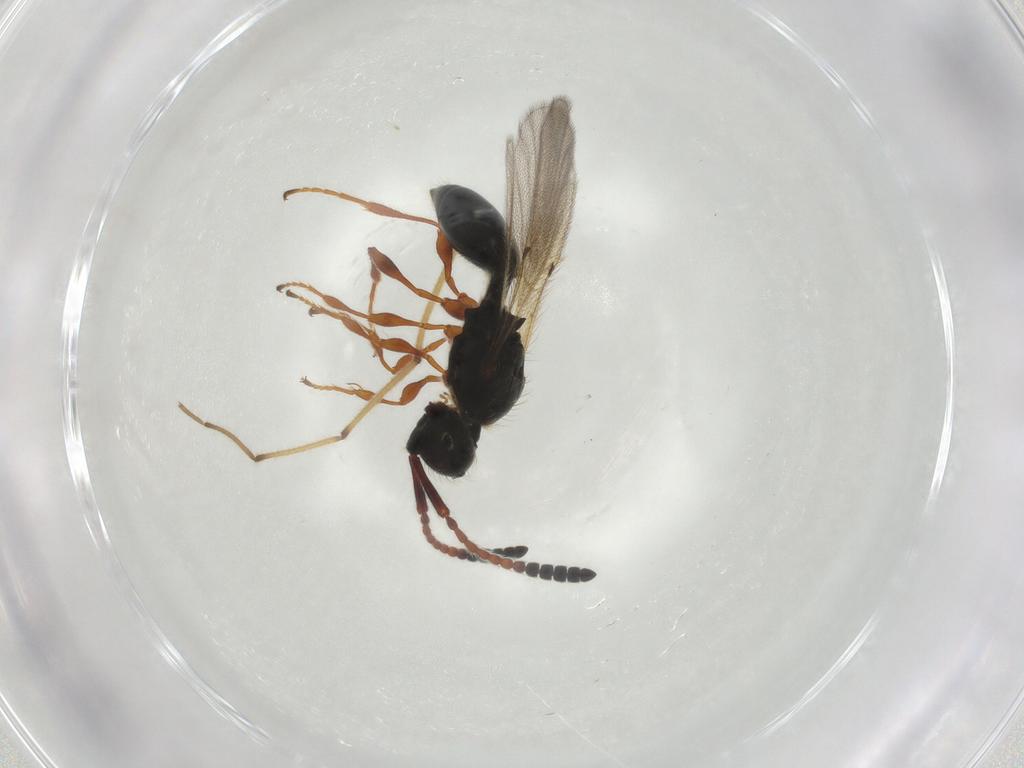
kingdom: Animalia
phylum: Arthropoda
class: Insecta
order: Hymenoptera
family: Diapriidae
